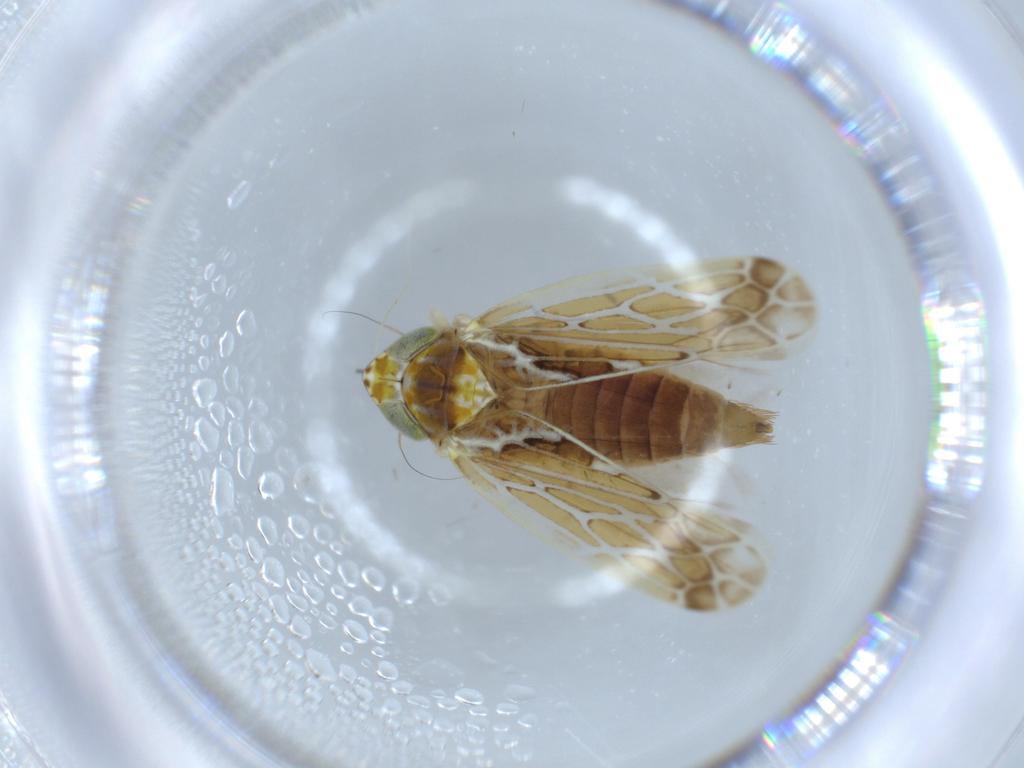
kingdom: Animalia
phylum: Arthropoda
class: Insecta
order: Hemiptera
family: Cicadellidae
